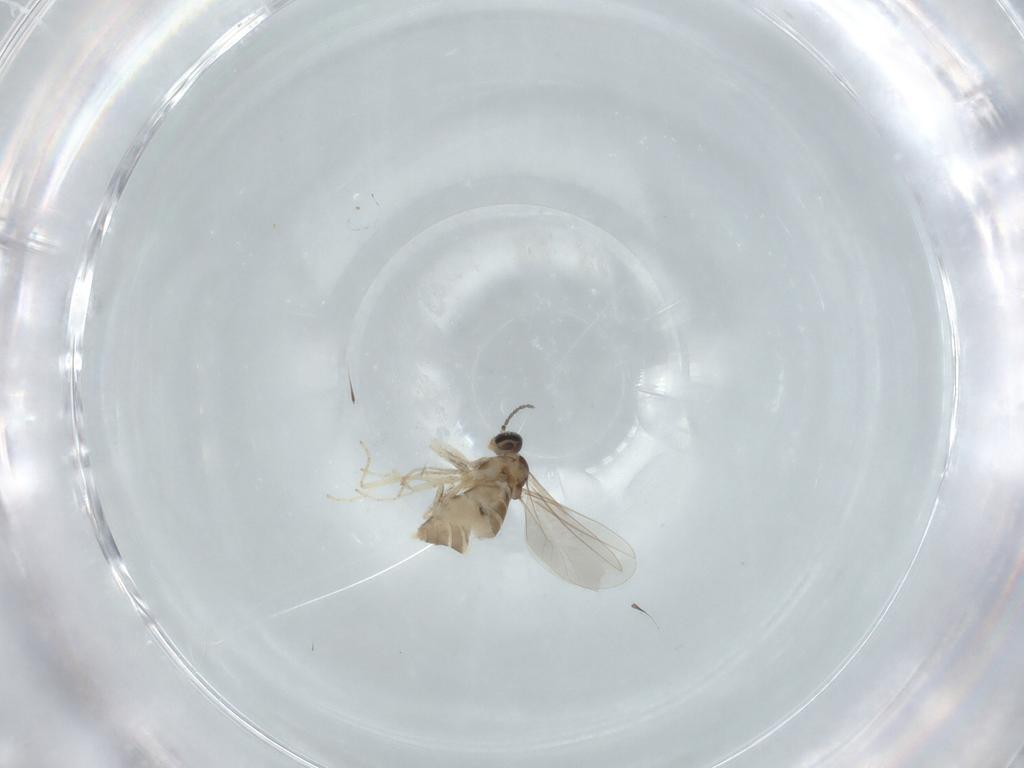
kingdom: Animalia
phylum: Arthropoda
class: Insecta
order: Diptera
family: Cecidomyiidae
